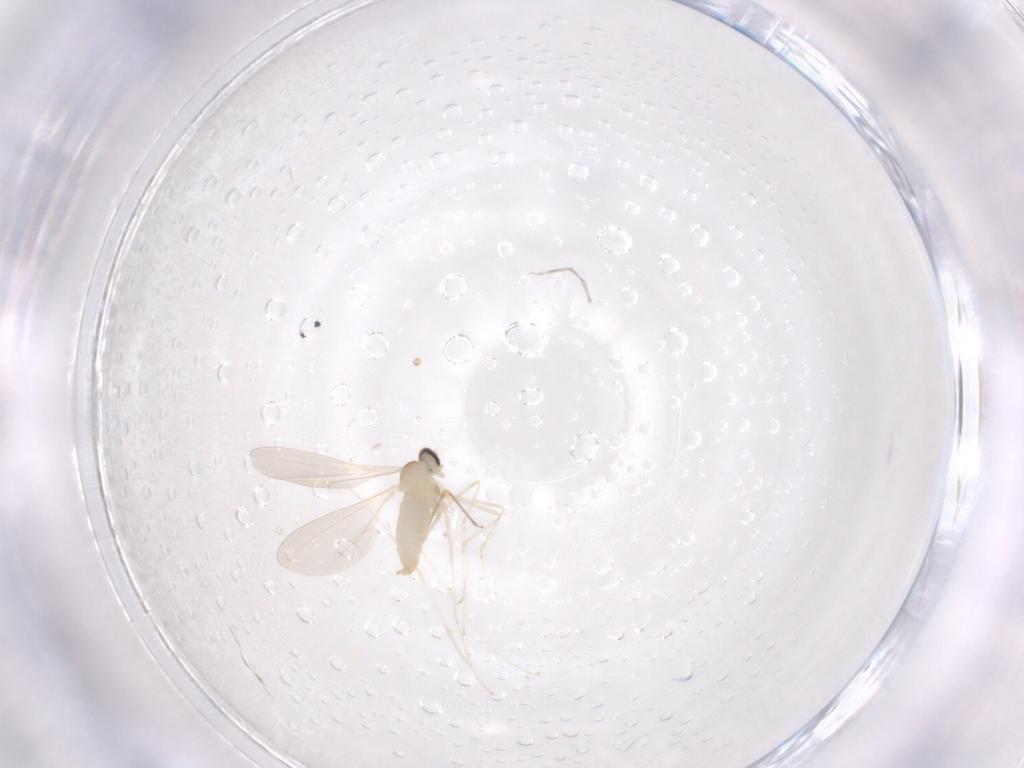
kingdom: Animalia
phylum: Arthropoda
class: Insecta
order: Diptera
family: Cecidomyiidae
